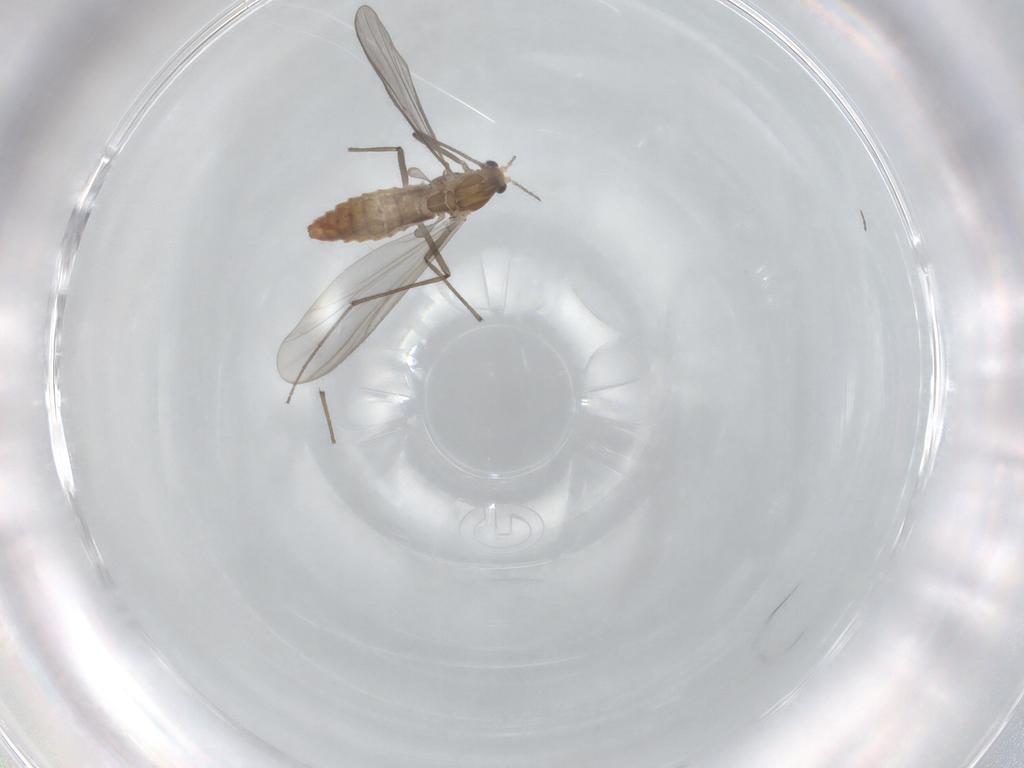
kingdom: Animalia
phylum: Arthropoda
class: Insecta
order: Diptera
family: Chironomidae
